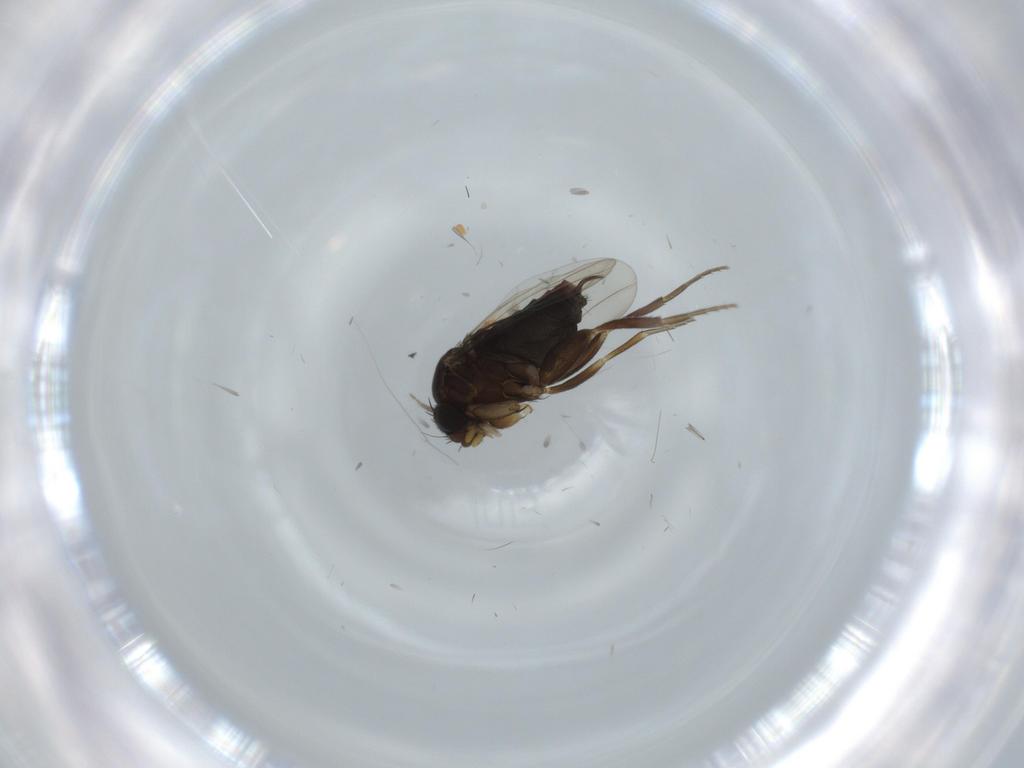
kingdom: Animalia
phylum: Arthropoda
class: Insecta
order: Diptera
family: Phoridae
